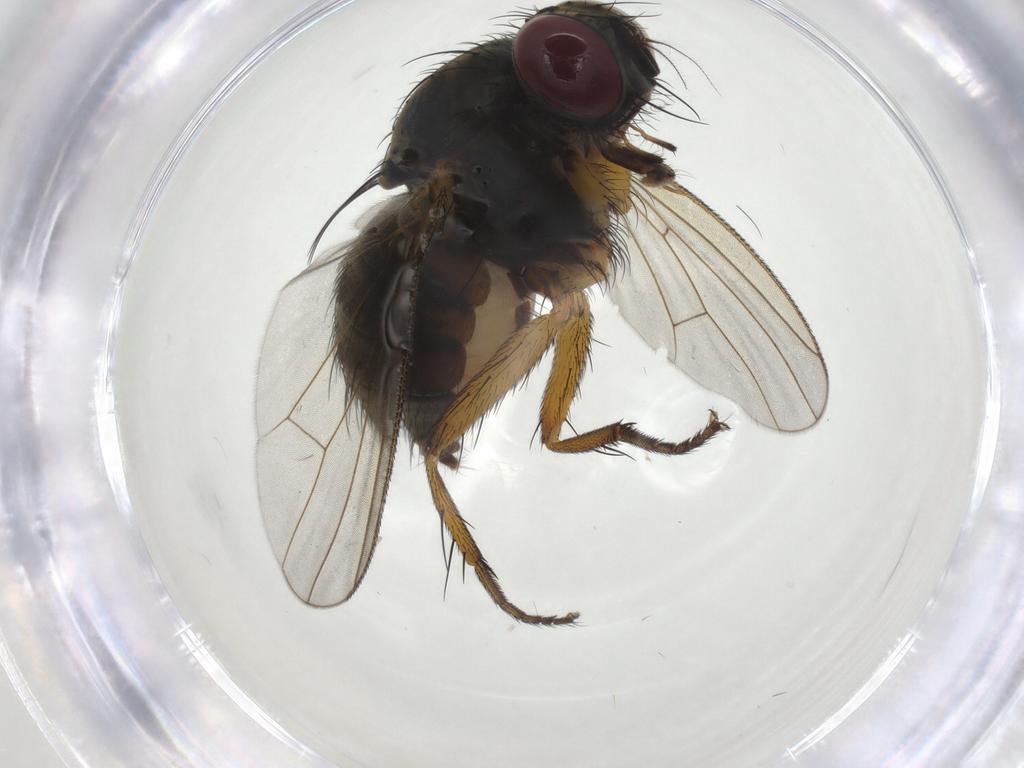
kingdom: Animalia
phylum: Arthropoda
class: Insecta
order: Diptera
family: Muscidae
